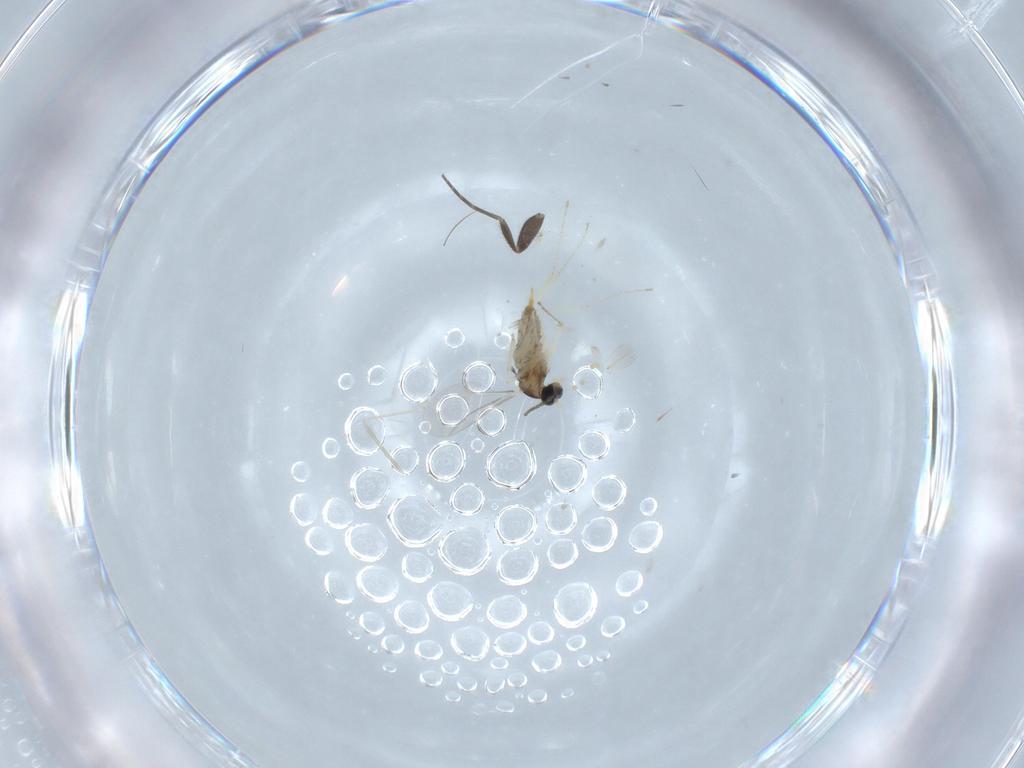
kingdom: Animalia
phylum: Arthropoda
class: Insecta
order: Diptera
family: Cecidomyiidae
